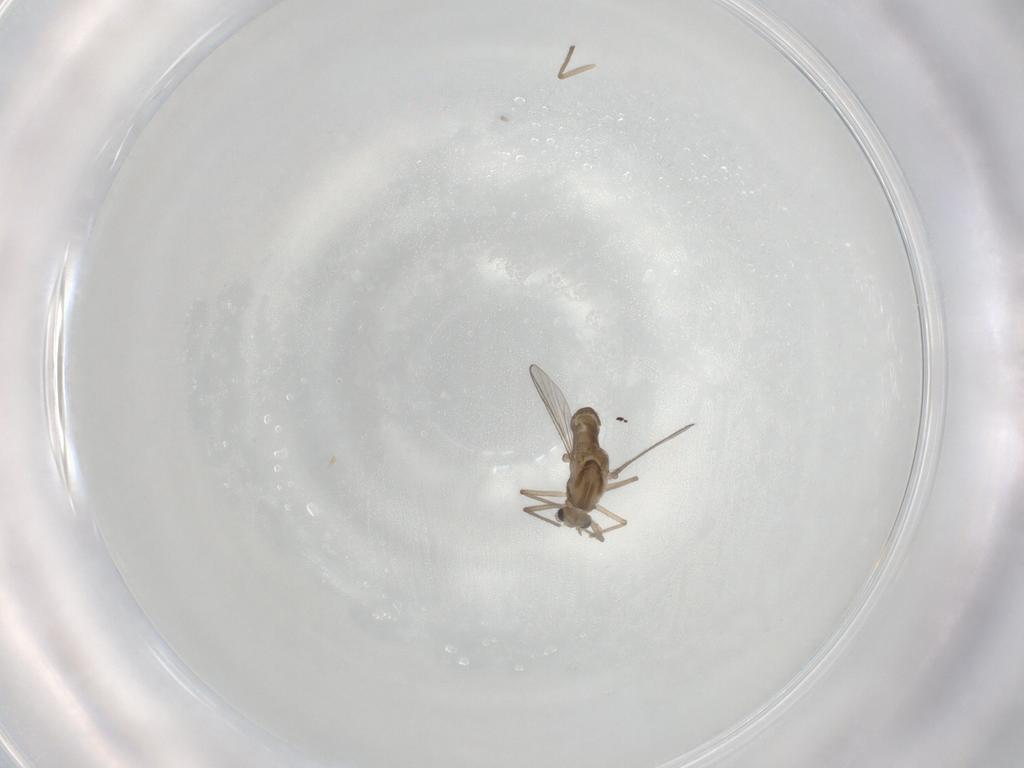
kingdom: Animalia
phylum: Arthropoda
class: Insecta
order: Diptera
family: Chironomidae
